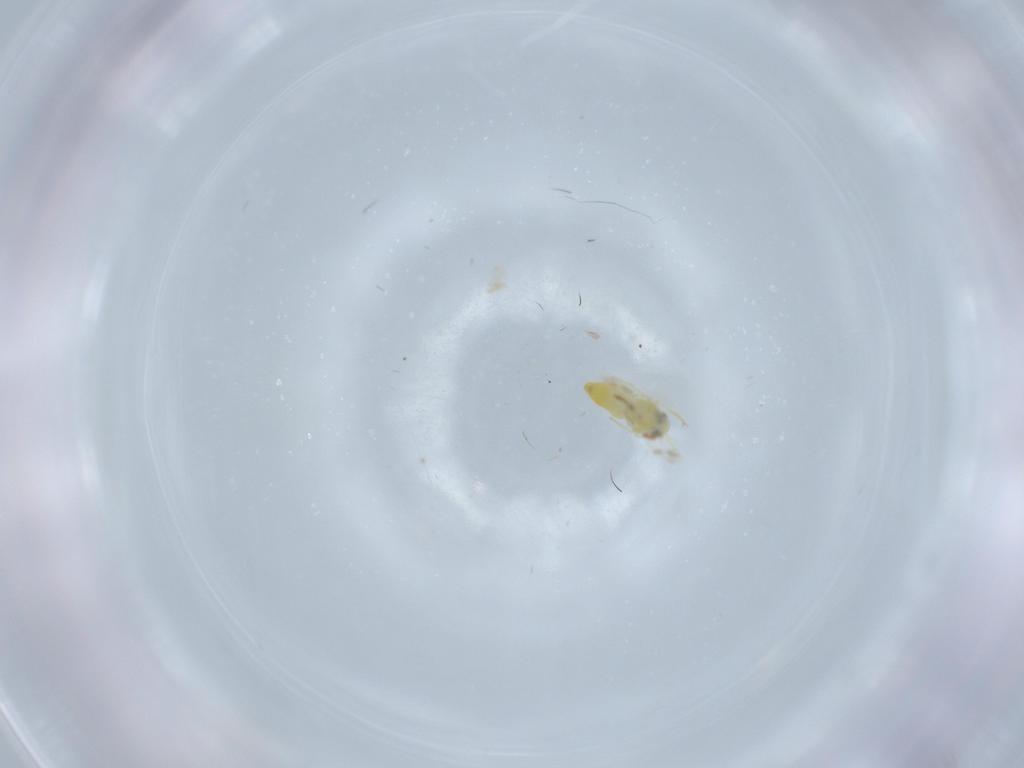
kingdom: Animalia
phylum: Arthropoda
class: Insecta
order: Hemiptera
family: Aleyrodidae
